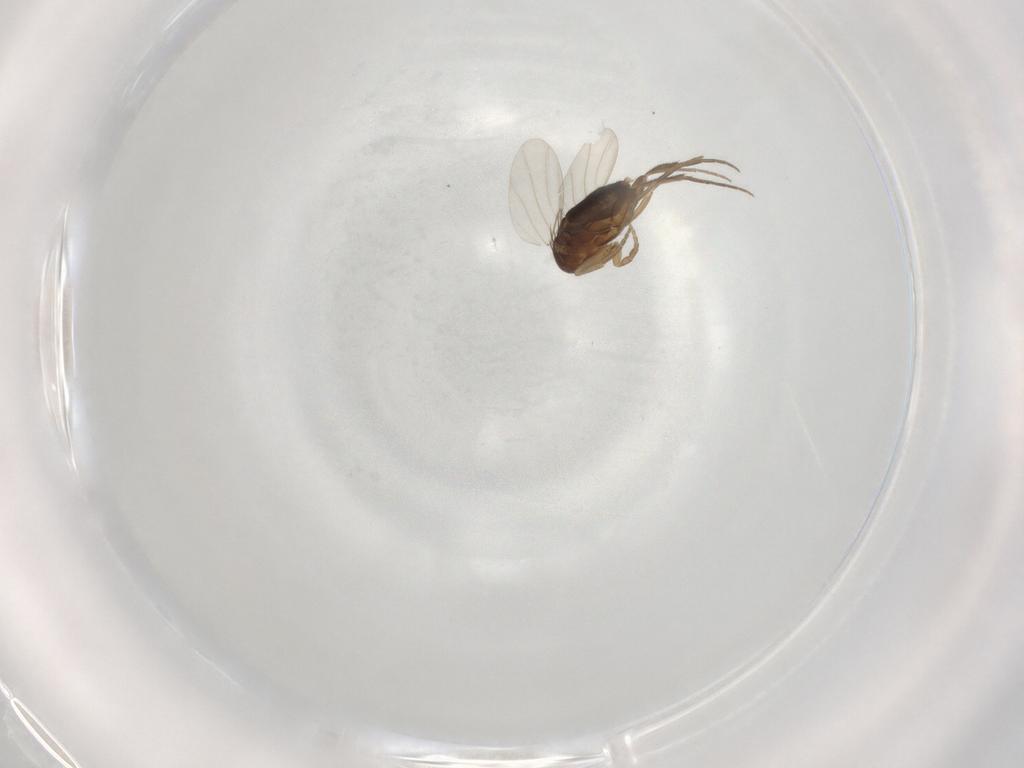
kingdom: Animalia
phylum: Arthropoda
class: Insecta
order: Diptera
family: Phoridae
